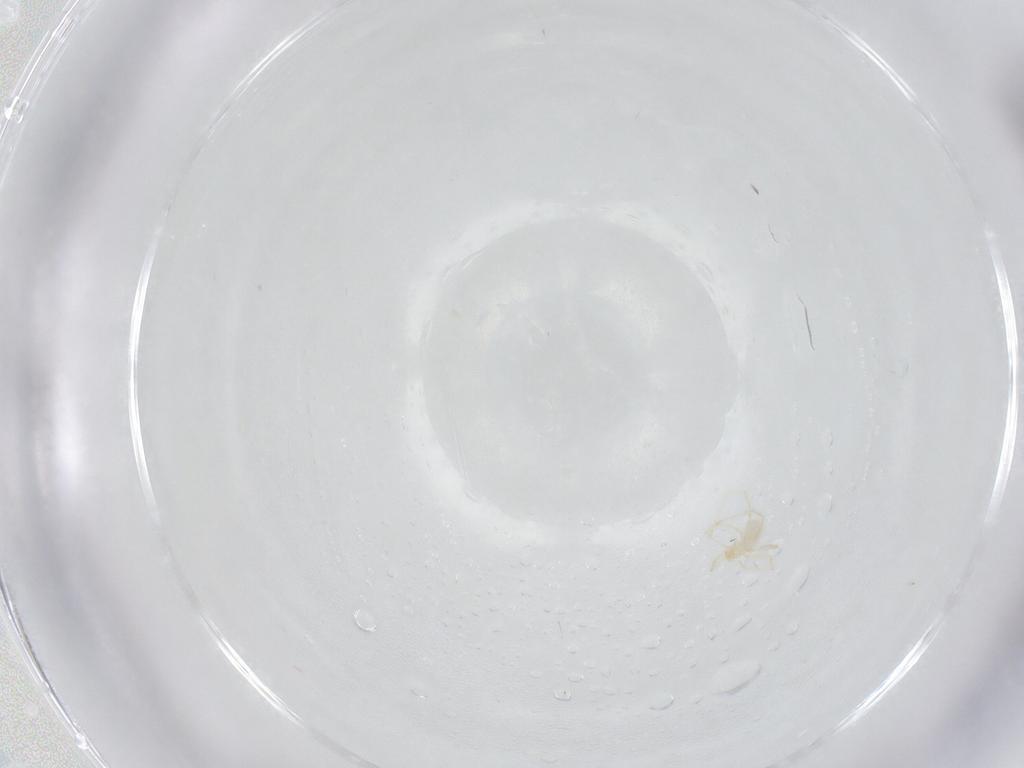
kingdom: Animalia
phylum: Arthropoda
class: Arachnida
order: Trombidiformes
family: Erythraeidae
